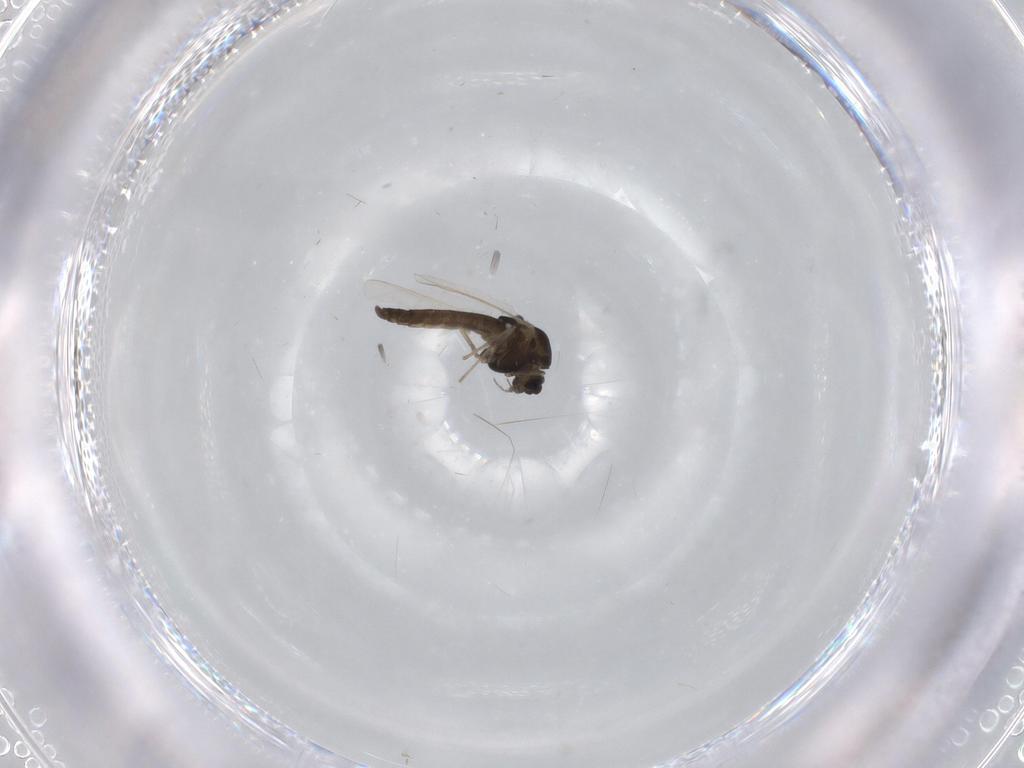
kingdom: Animalia
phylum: Arthropoda
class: Insecta
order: Diptera
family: Chironomidae
